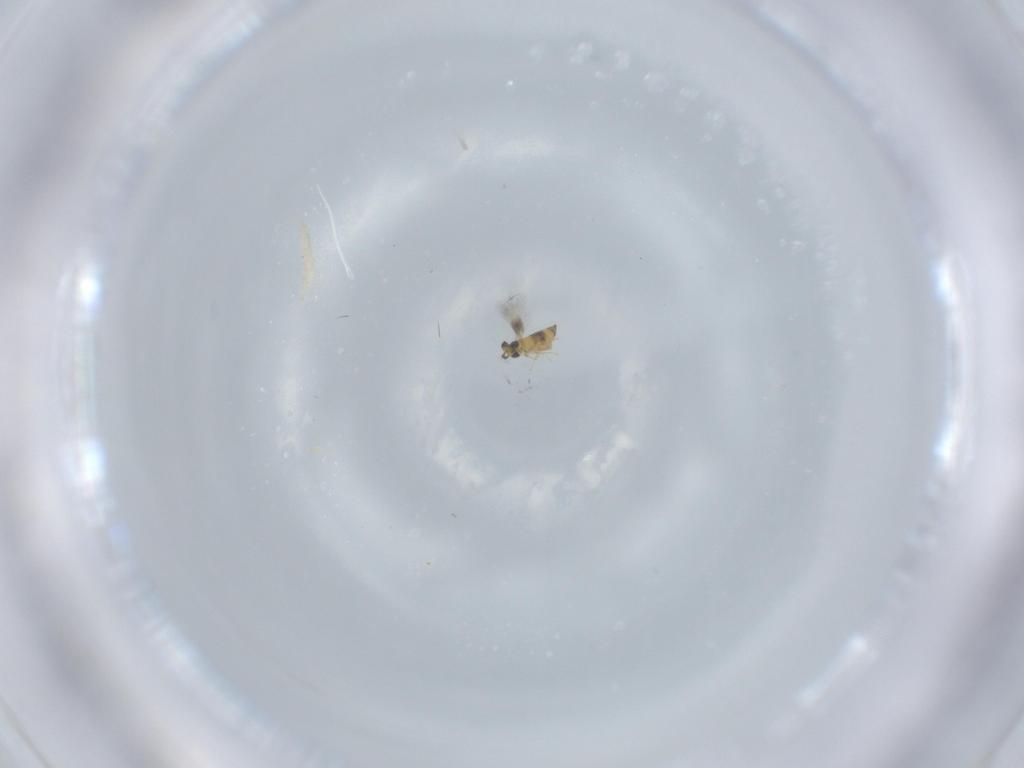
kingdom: Animalia
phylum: Arthropoda
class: Insecta
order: Hymenoptera
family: Signiphoridae
